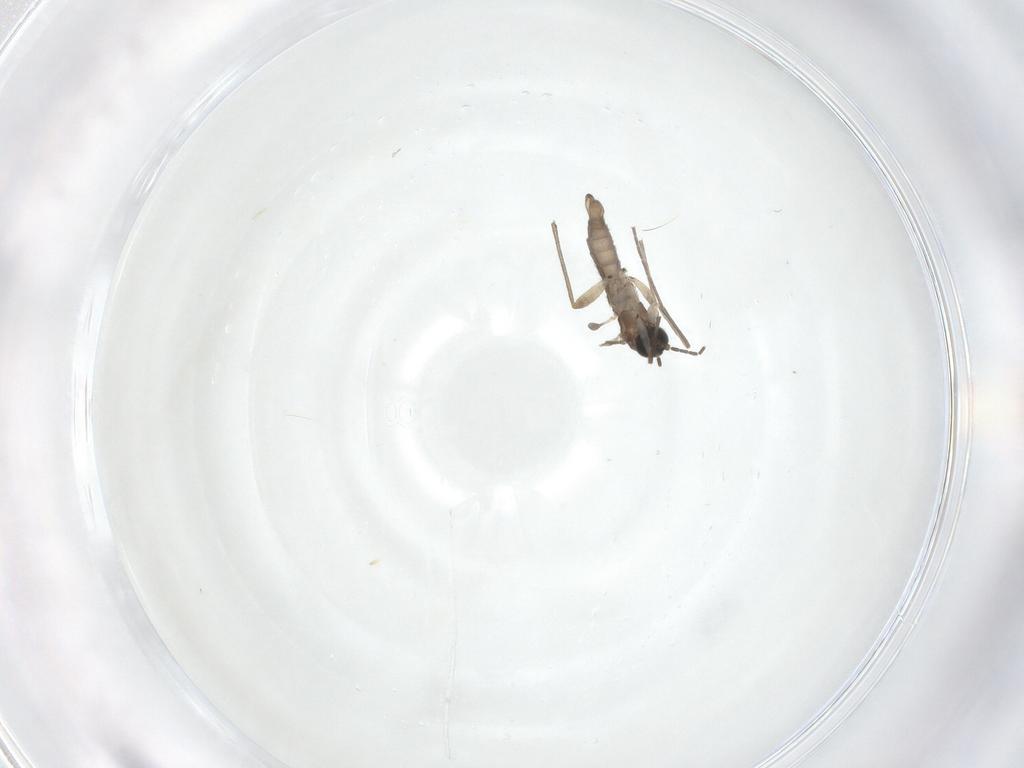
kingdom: Animalia
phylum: Arthropoda
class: Insecta
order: Diptera
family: Sciaridae
